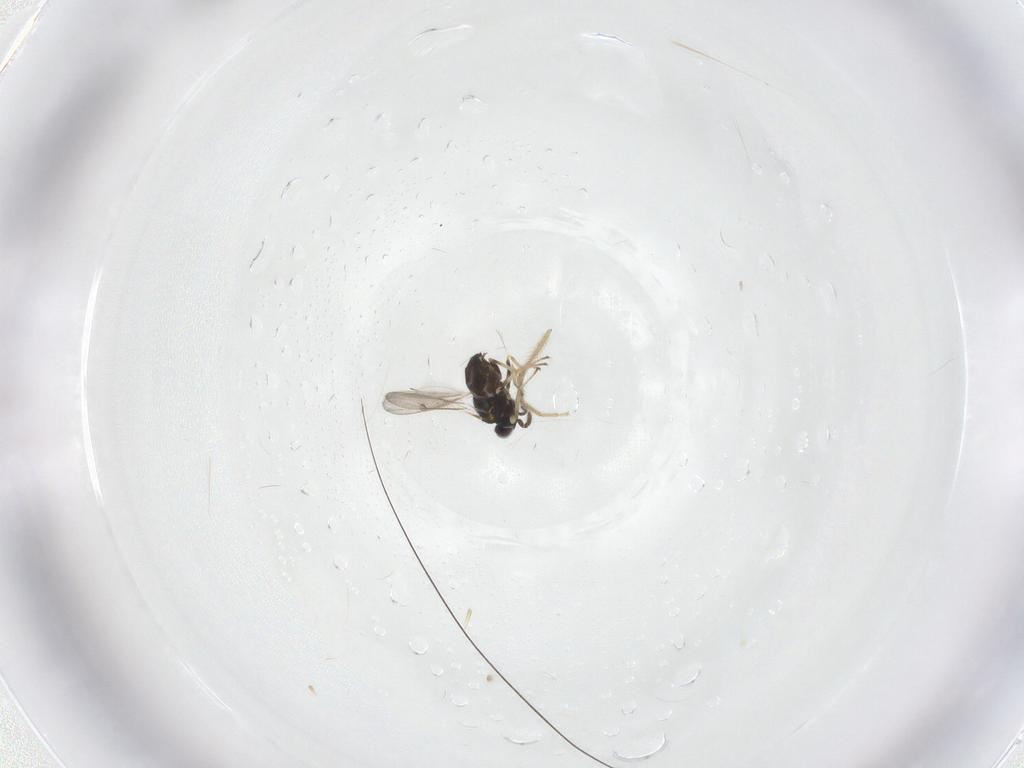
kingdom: Animalia
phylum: Arthropoda
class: Insecta
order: Hymenoptera
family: Eulophidae
